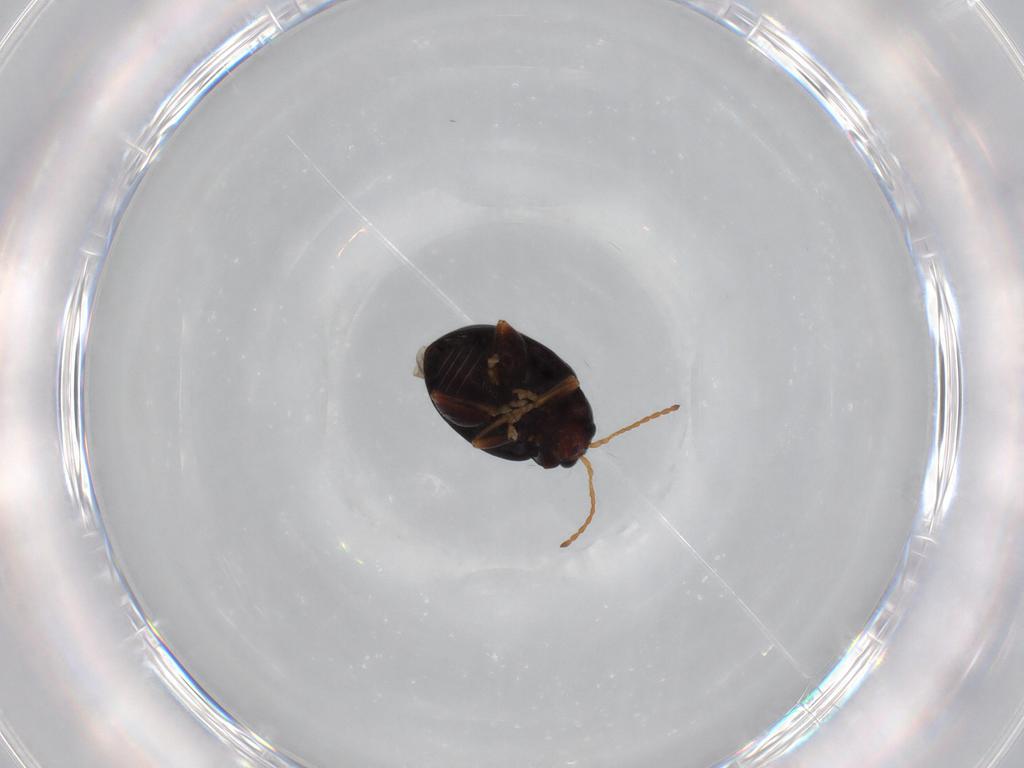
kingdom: Animalia
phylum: Arthropoda
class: Insecta
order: Coleoptera
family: Chrysomelidae
